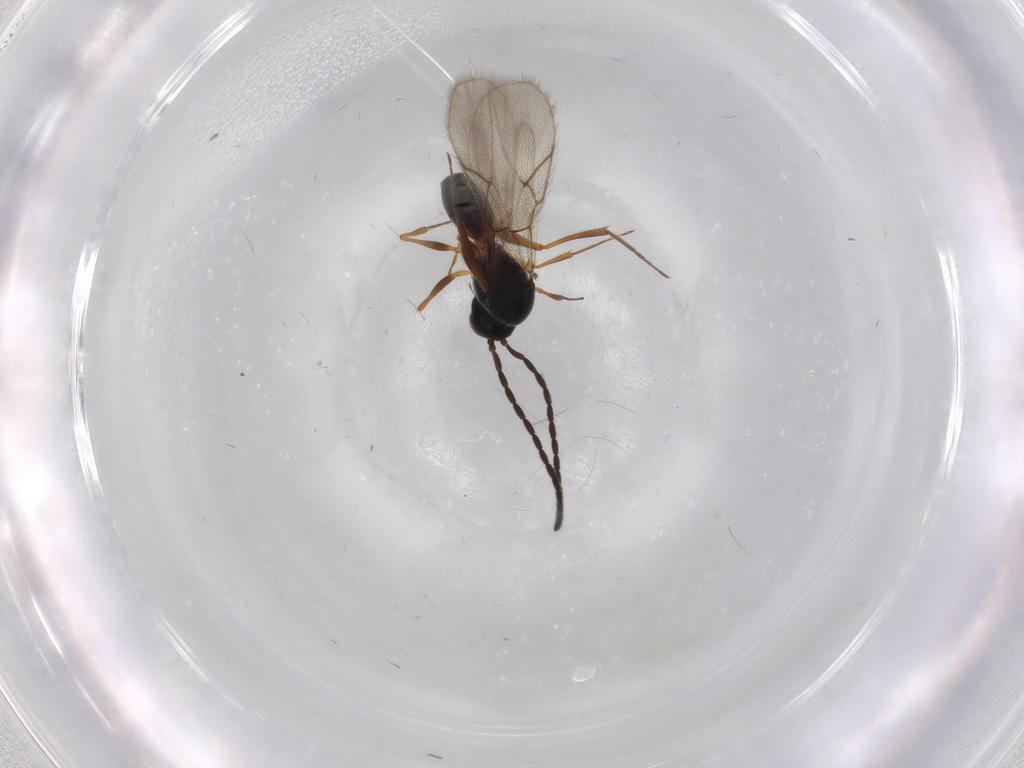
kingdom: Animalia
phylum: Arthropoda
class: Insecta
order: Hymenoptera
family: Figitidae
